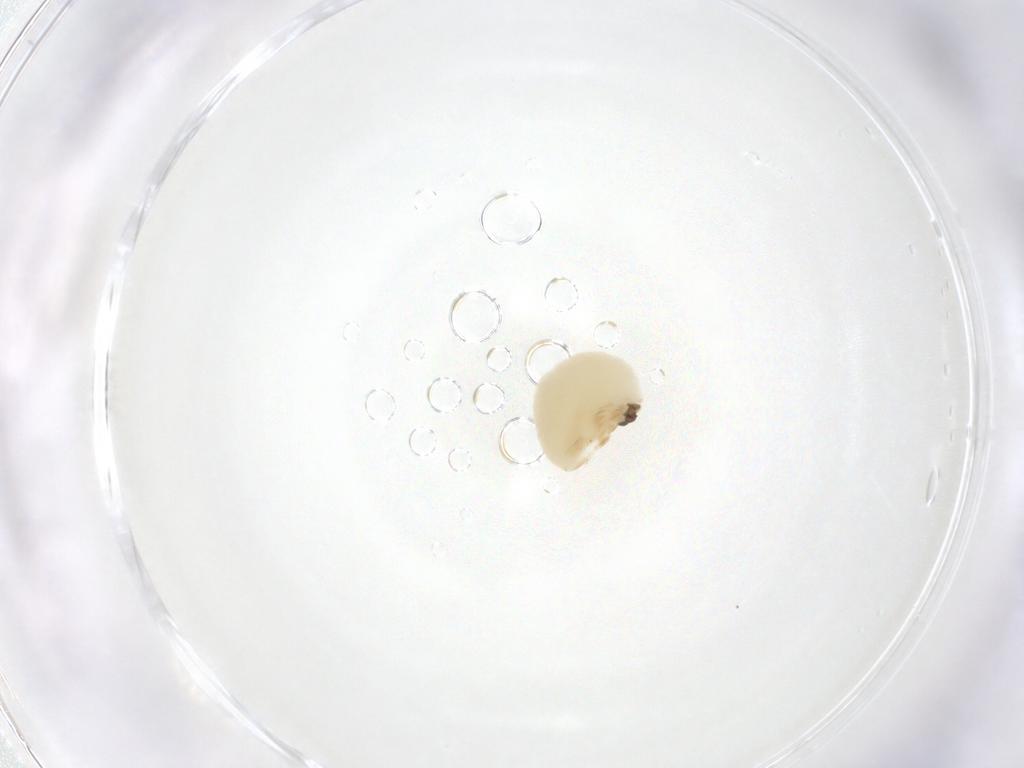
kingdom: Animalia
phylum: Arthropoda
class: Insecta
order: Hymenoptera
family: Eulophidae
